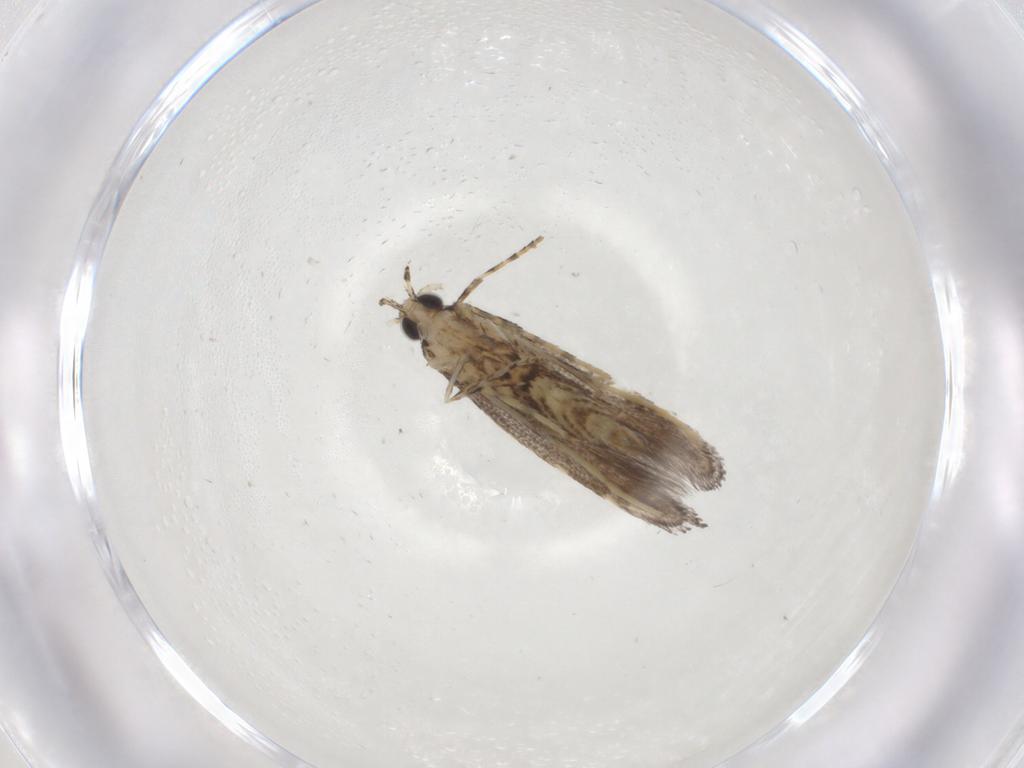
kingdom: Animalia
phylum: Arthropoda
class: Insecta
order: Lepidoptera
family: Gracillariidae
